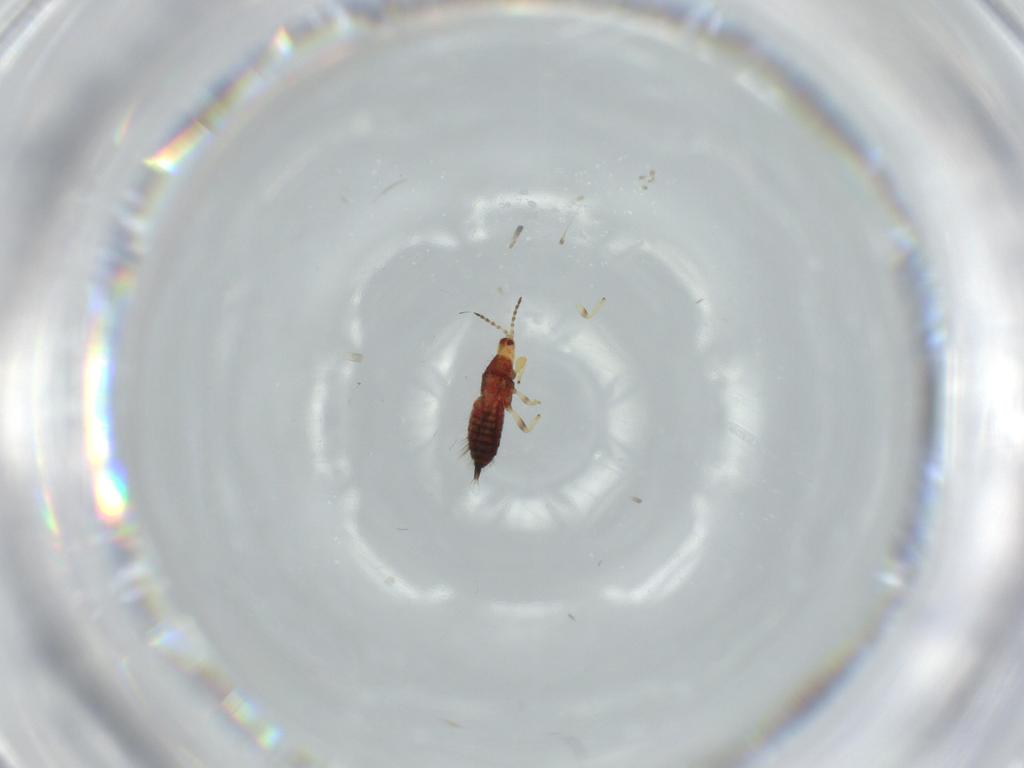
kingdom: Animalia
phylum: Arthropoda
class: Insecta
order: Thysanoptera
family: Phlaeothripidae
